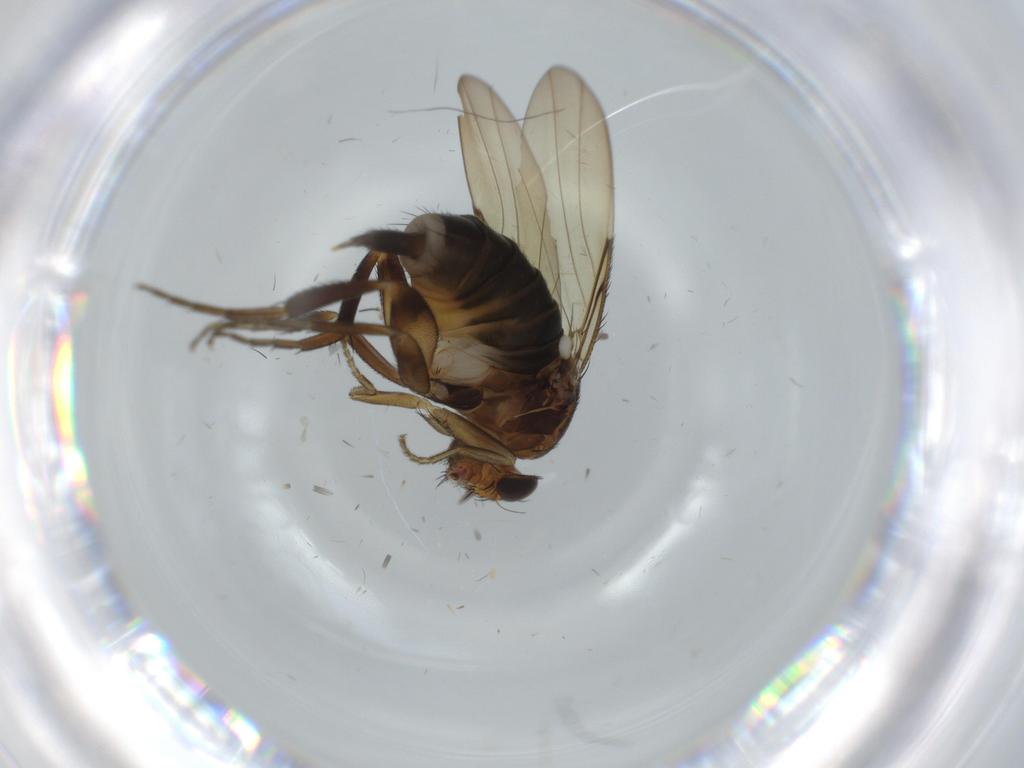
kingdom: Animalia
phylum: Arthropoda
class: Insecta
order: Diptera
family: Phoridae
